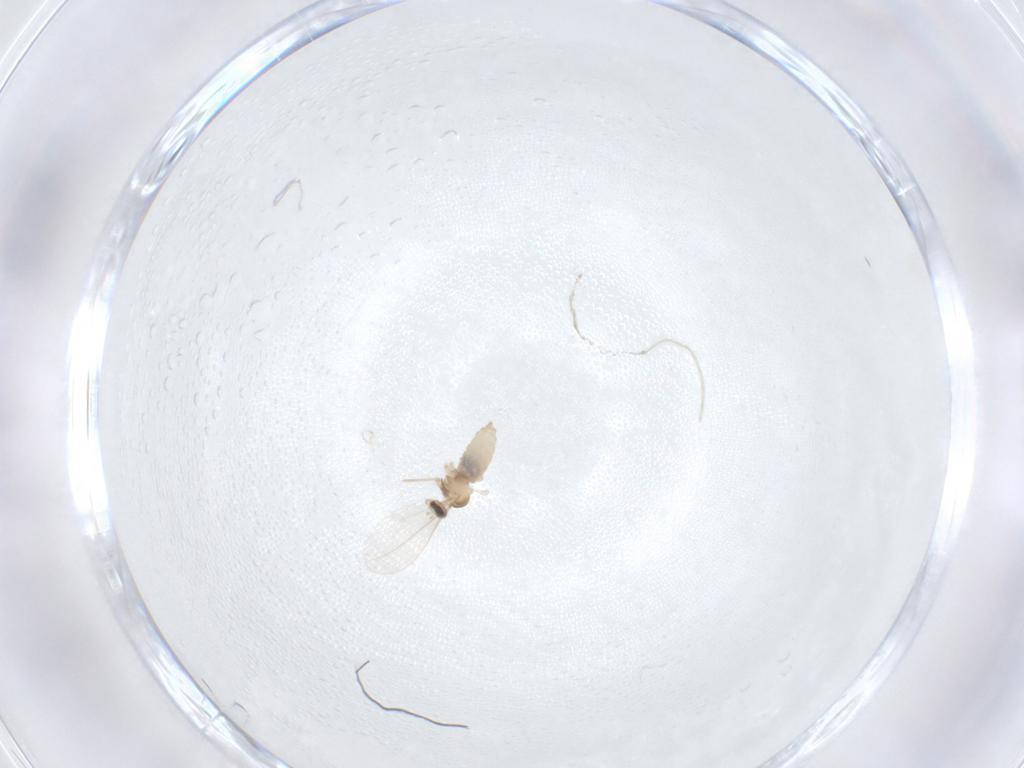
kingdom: Animalia
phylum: Arthropoda
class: Insecta
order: Diptera
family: Cecidomyiidae
